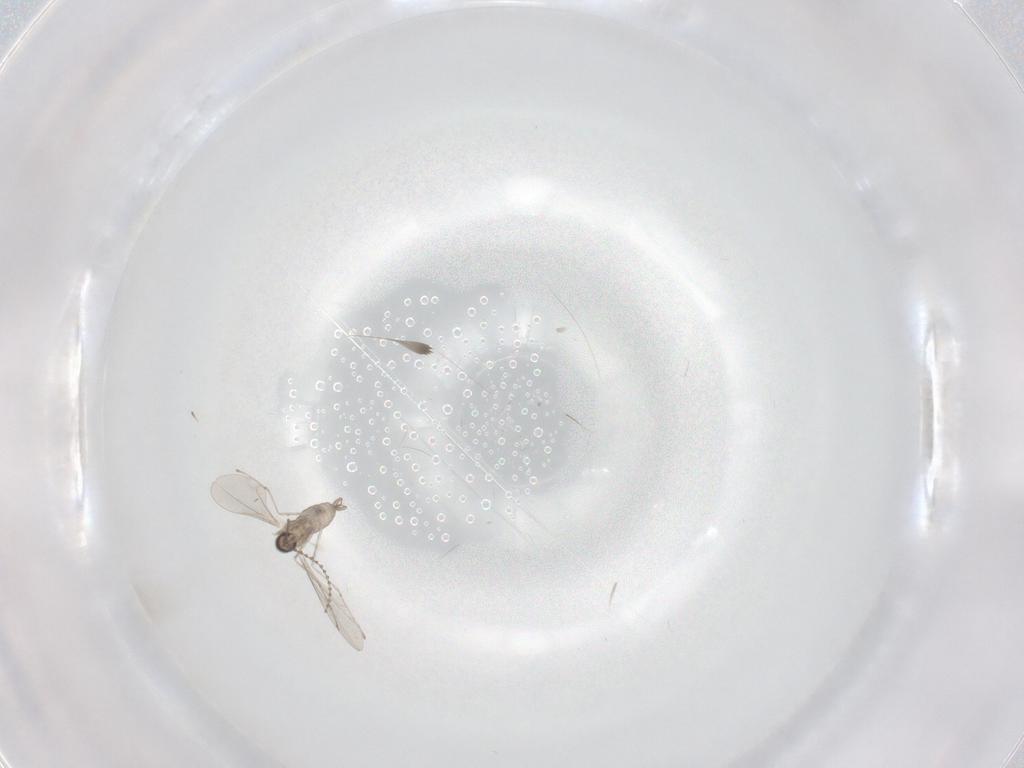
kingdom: Animalia
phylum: Arthropoda
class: Insecta
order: Diptera
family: Cecidomyiidae
